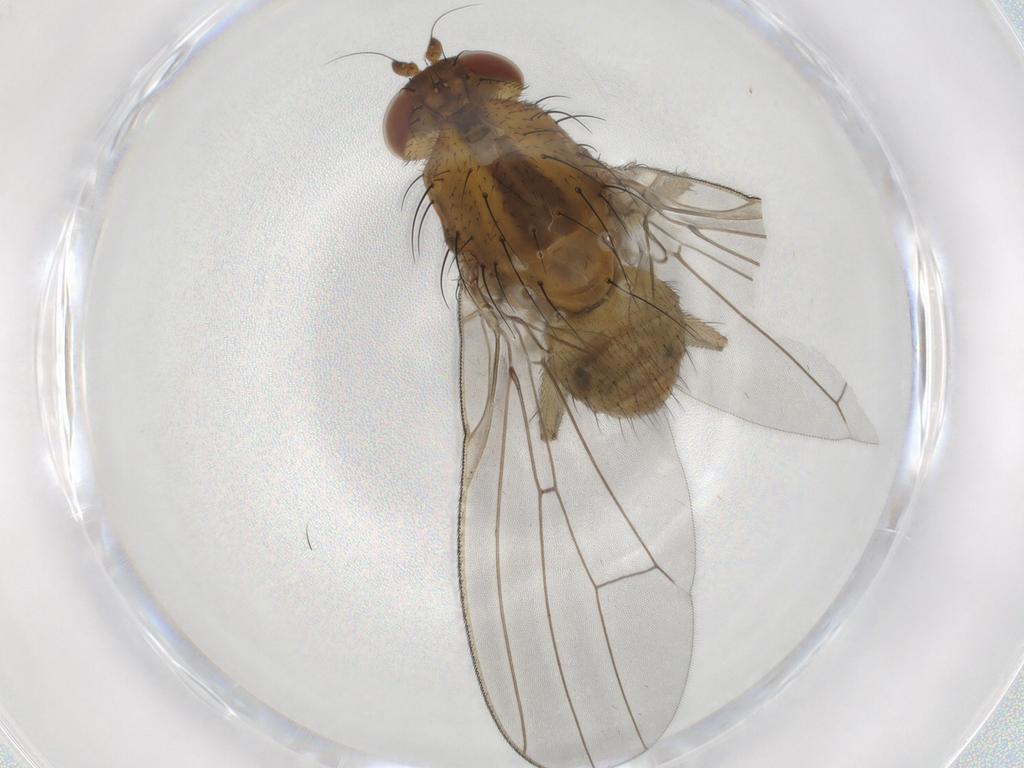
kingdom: Animalia
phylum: Arthropoda
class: Insecta
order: Diptera
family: Lauxaniidae
